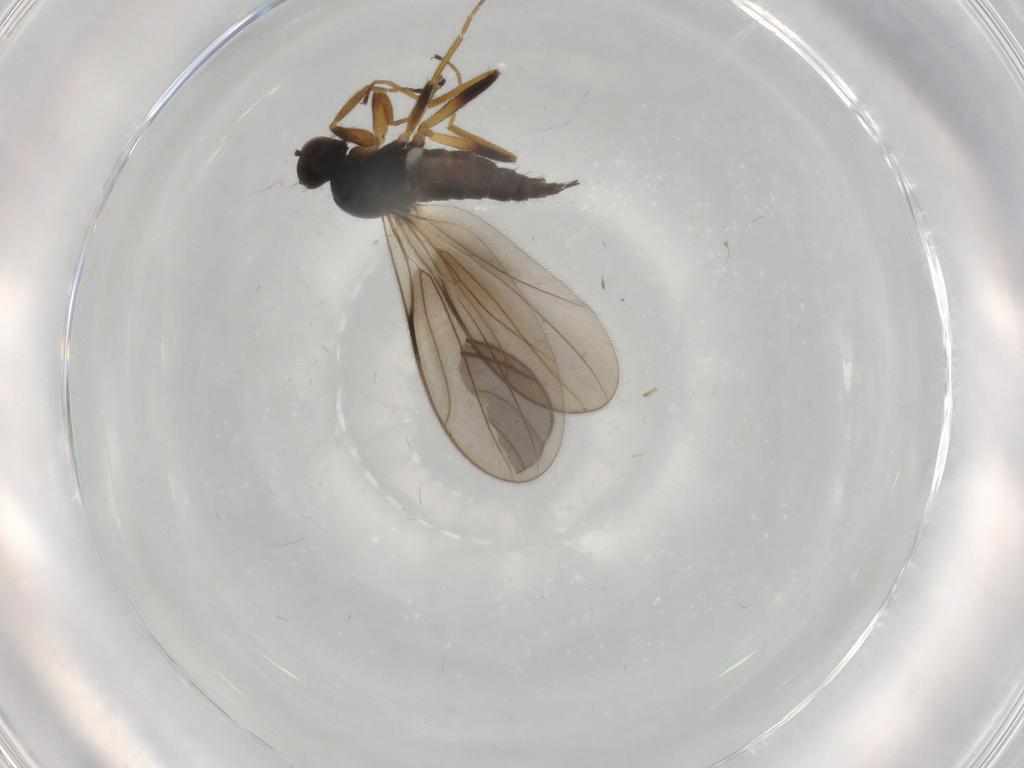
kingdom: Animalia
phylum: Arthropoda
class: Insecta
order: Diptera
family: Hybotidae
